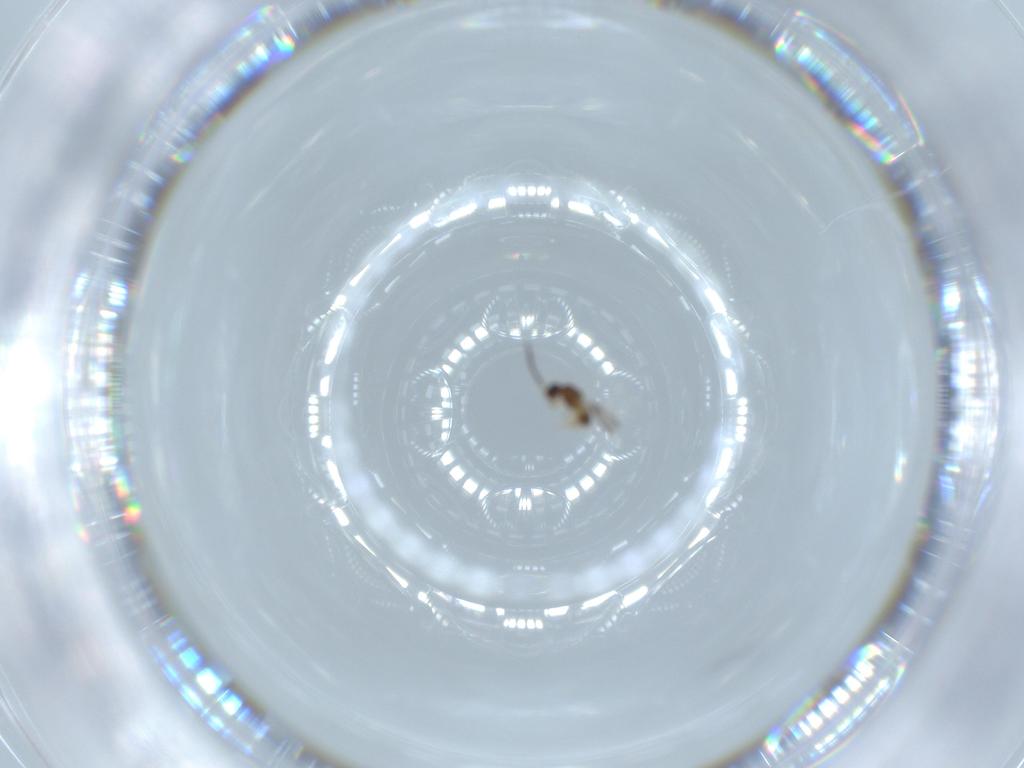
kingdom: Animalia
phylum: Arthropoda
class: Insecta
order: Hymenoptera
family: Ceraphronidae
